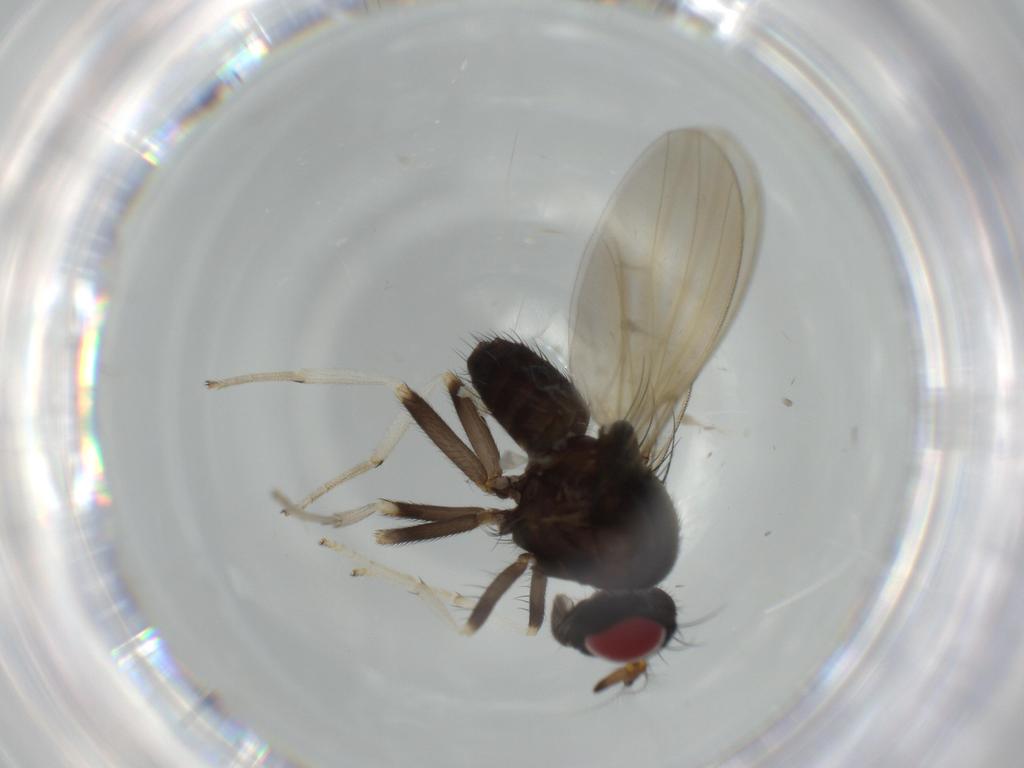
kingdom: Animalia
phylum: Arthropoda
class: Insecta
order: Diptera
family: Lauxaniidae
